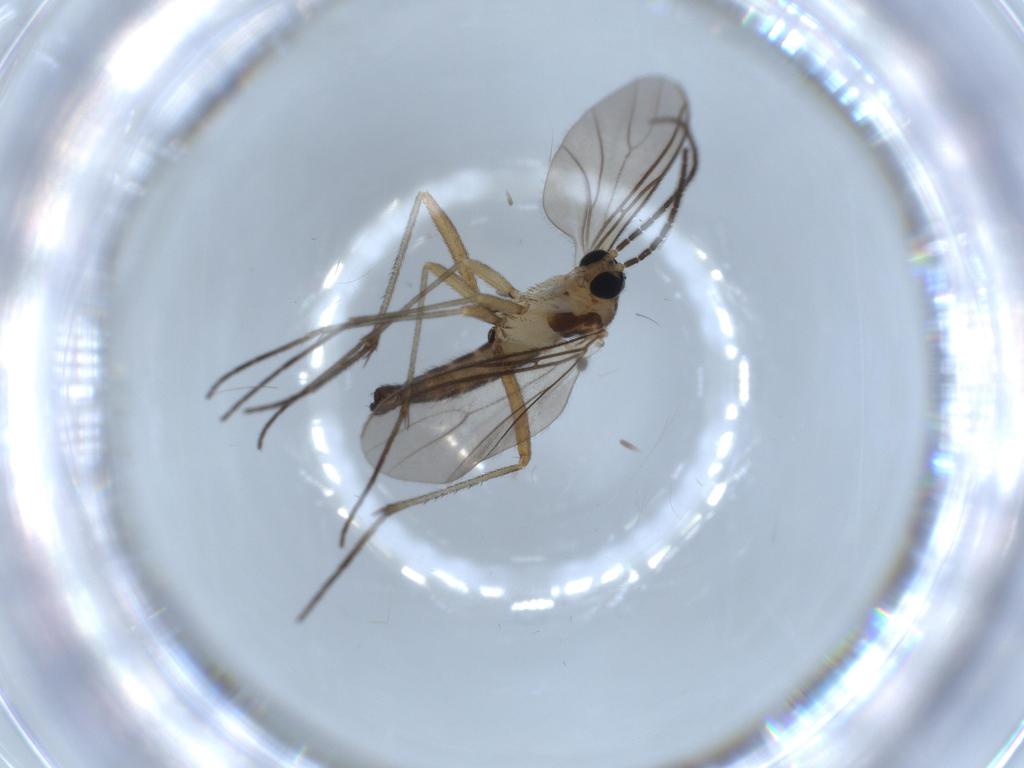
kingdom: Animalia
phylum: Arthropoda
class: Insecta
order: Diptera
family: Sciaridae
